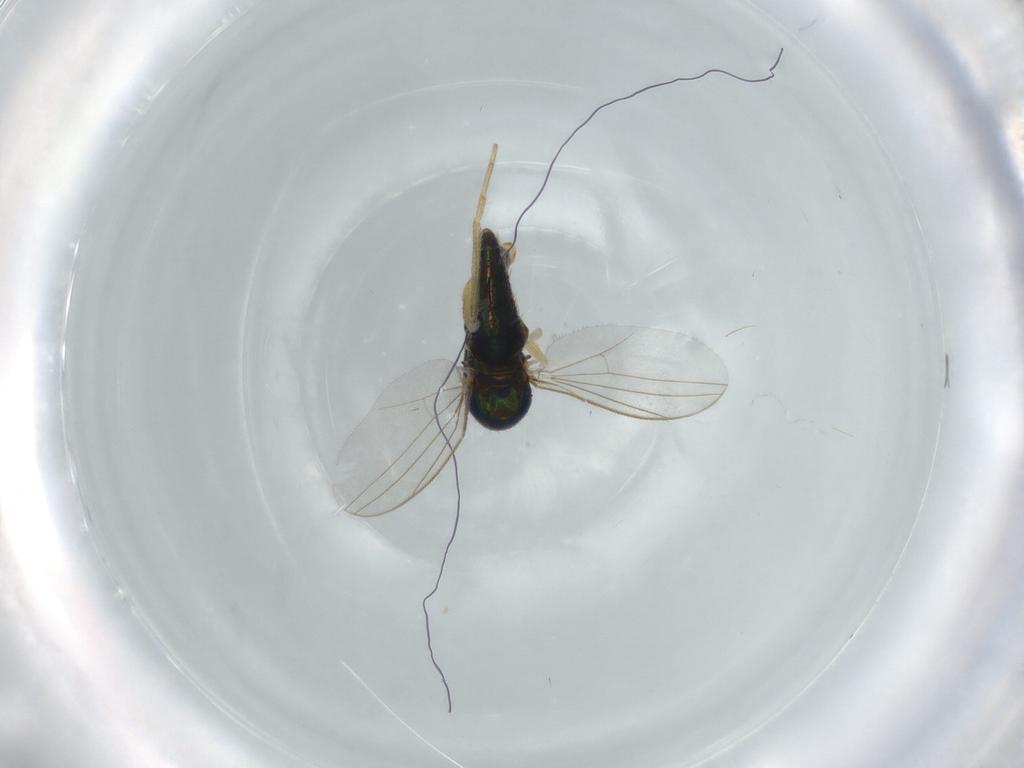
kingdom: Animalia
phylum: Arthropoda
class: Insecta
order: Diptera
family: Dolichopodidae
